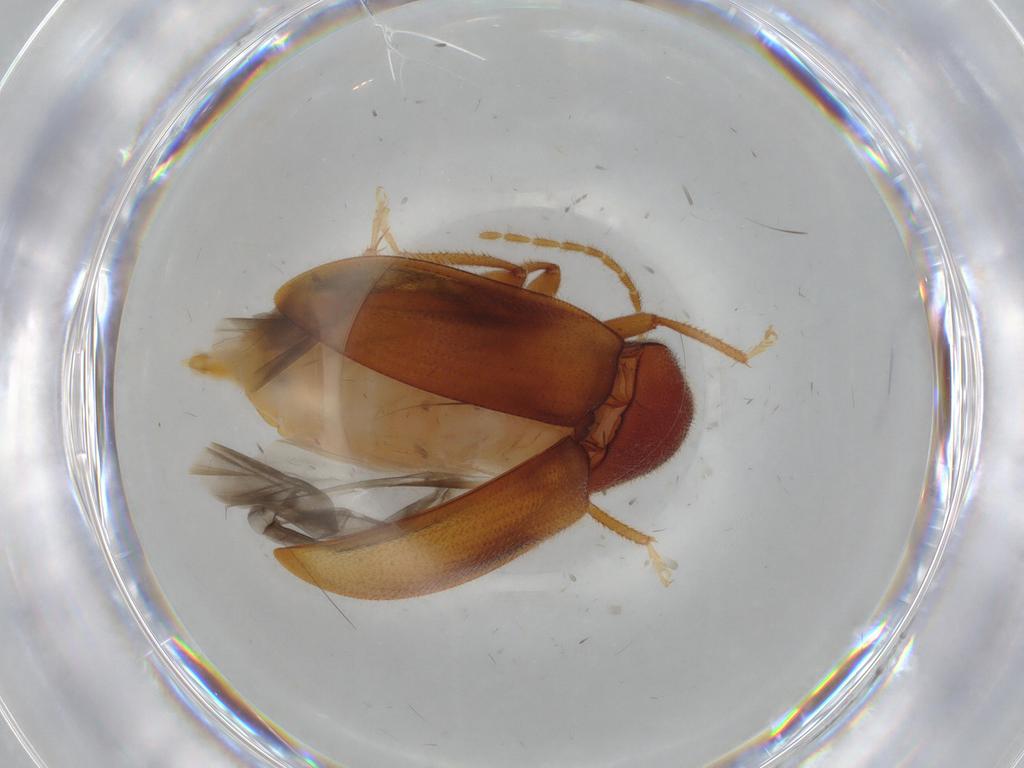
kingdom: Animalia
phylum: Arthropoda
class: Insecta
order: Coleoptera
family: Ptilodactylidae
